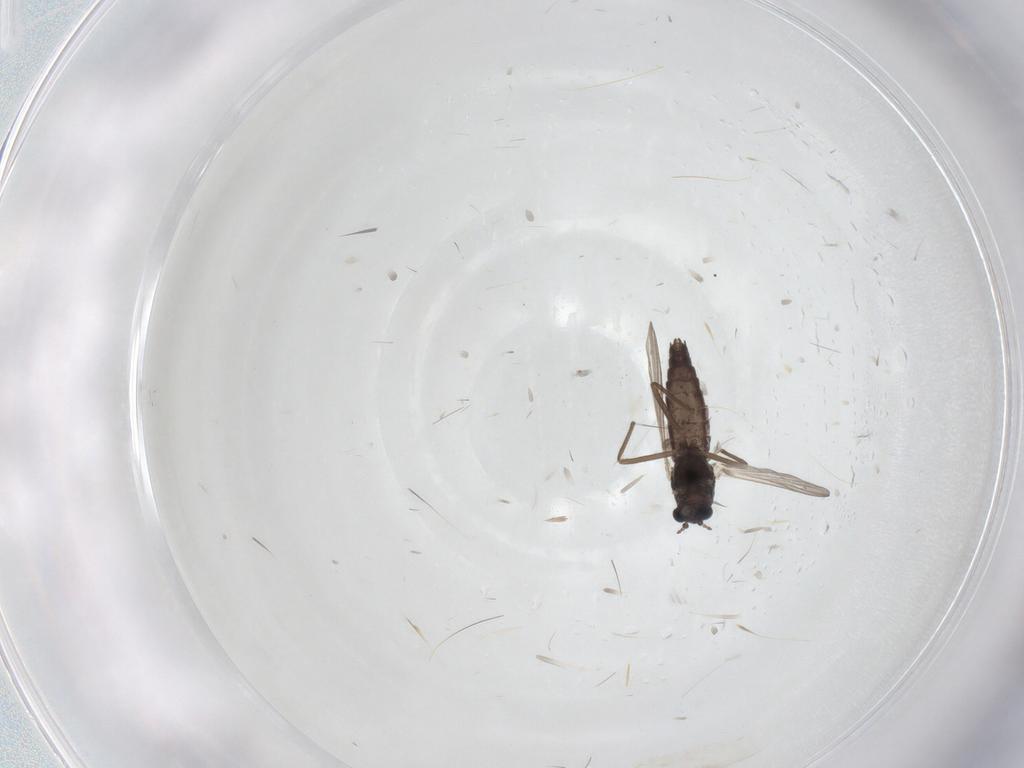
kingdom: Animalia
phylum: Arthropoda
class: Insecta
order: Diptera
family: Chironomidae
